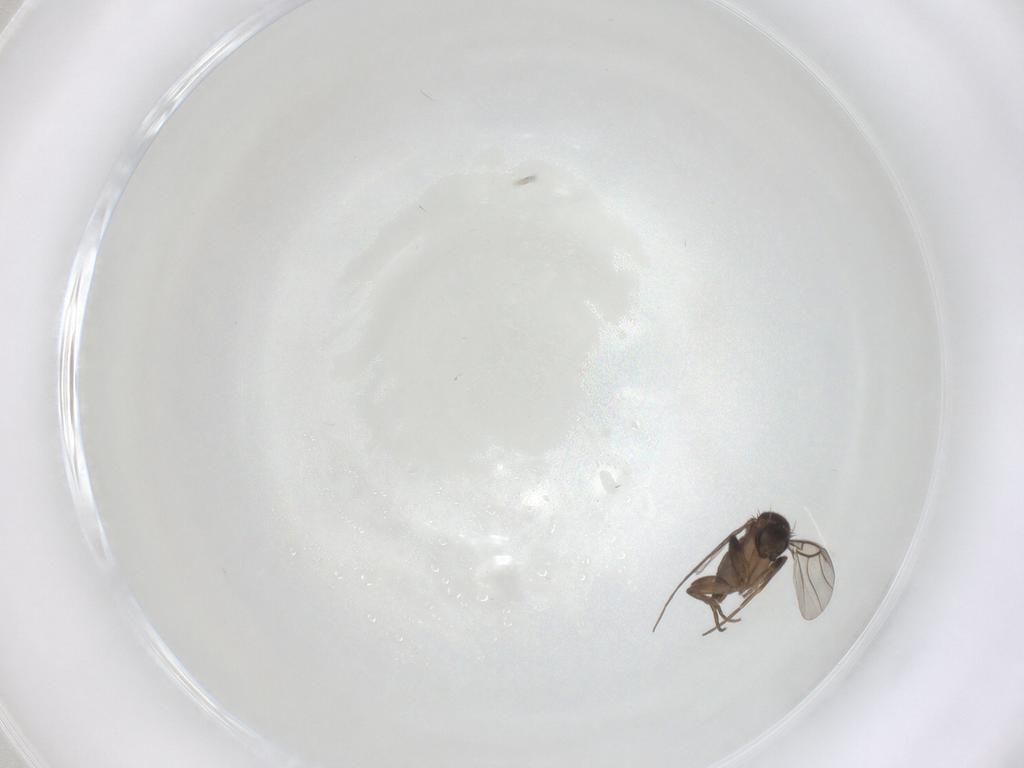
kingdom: Animalia
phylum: Arthropoda
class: Insecta
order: Diptera
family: Phoridae
